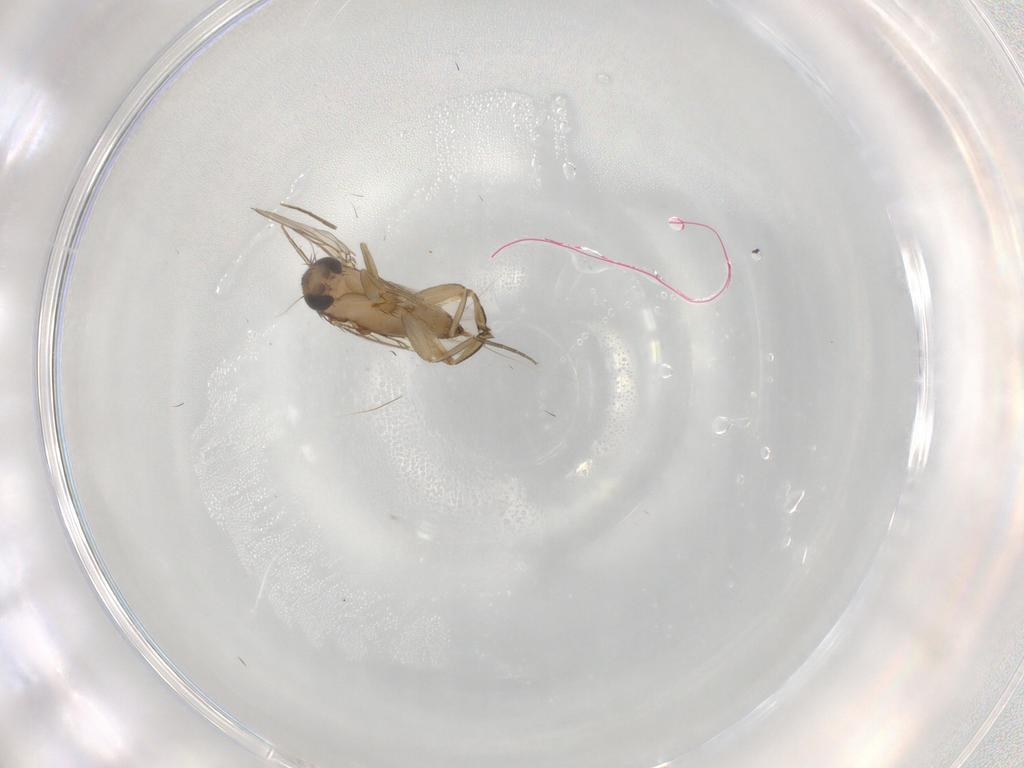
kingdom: Animalia
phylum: Arthropoda
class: Insecta
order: Diptera
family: Phoridae
